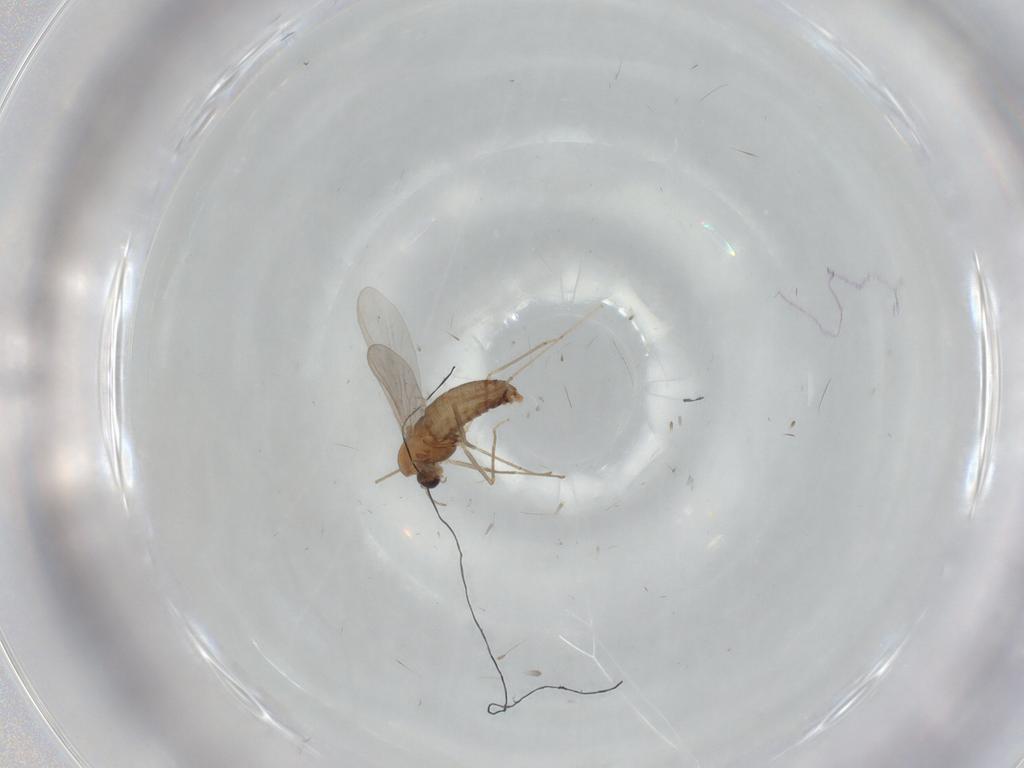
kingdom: Animalia
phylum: Arthropoda
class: Insecta
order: Diptera
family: Chironomidae
